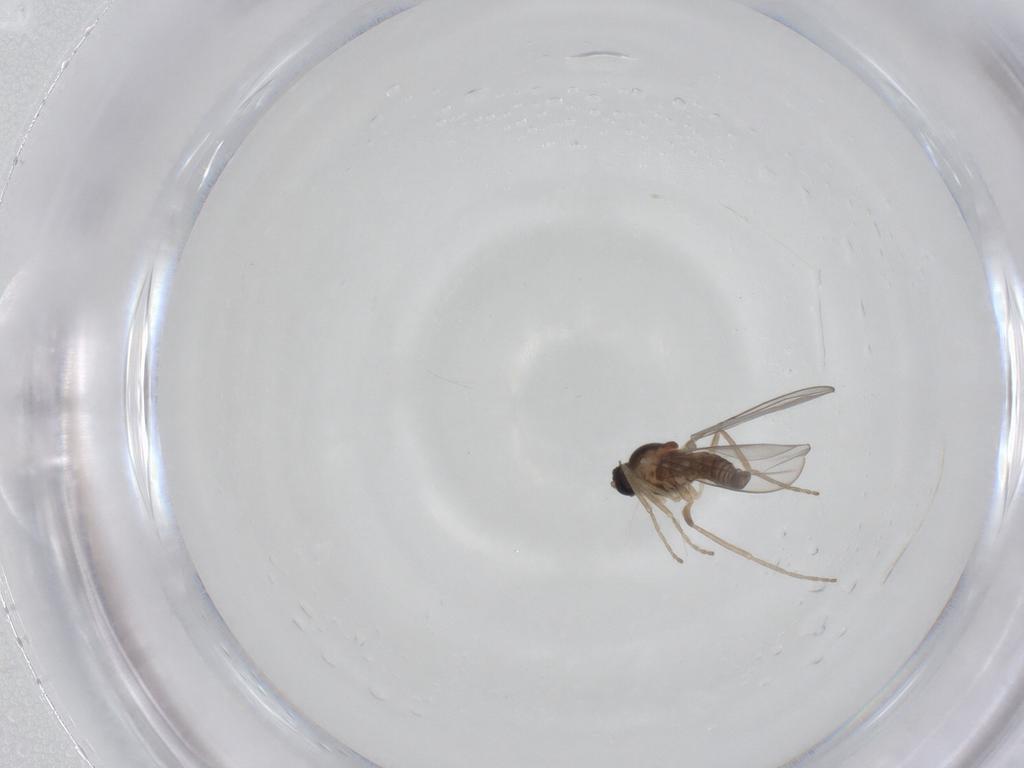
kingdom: Animalia
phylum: Arthropoda
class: Insecta
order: Diptera
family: Cecidomyiidae
